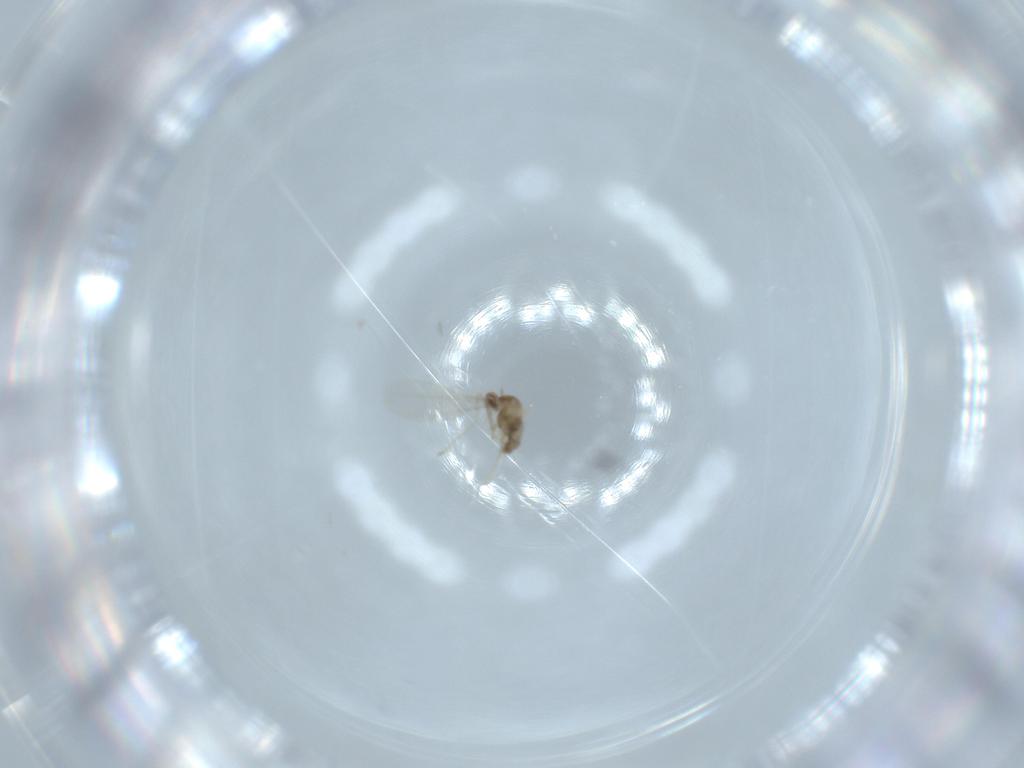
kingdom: Animalia
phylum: Arthropoda
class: Insecta
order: Diptera
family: Cecidomyiidae
